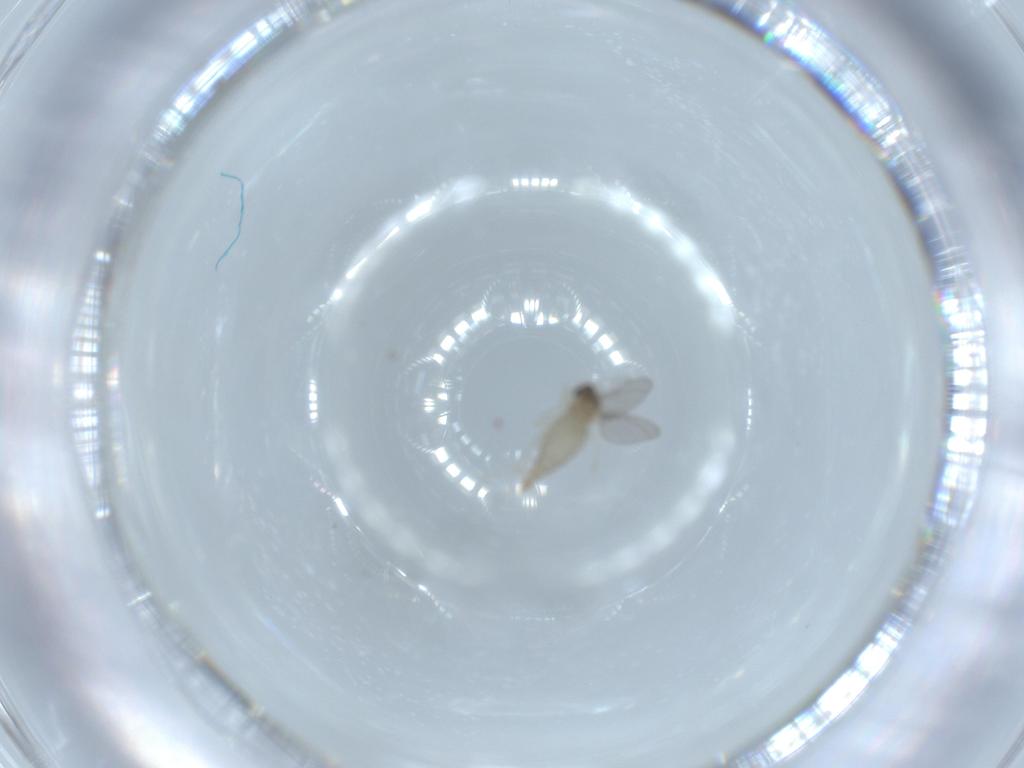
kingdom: Animalia
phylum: Arthropoda
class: Insecta
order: Diptera
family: Cecidomyiidae
